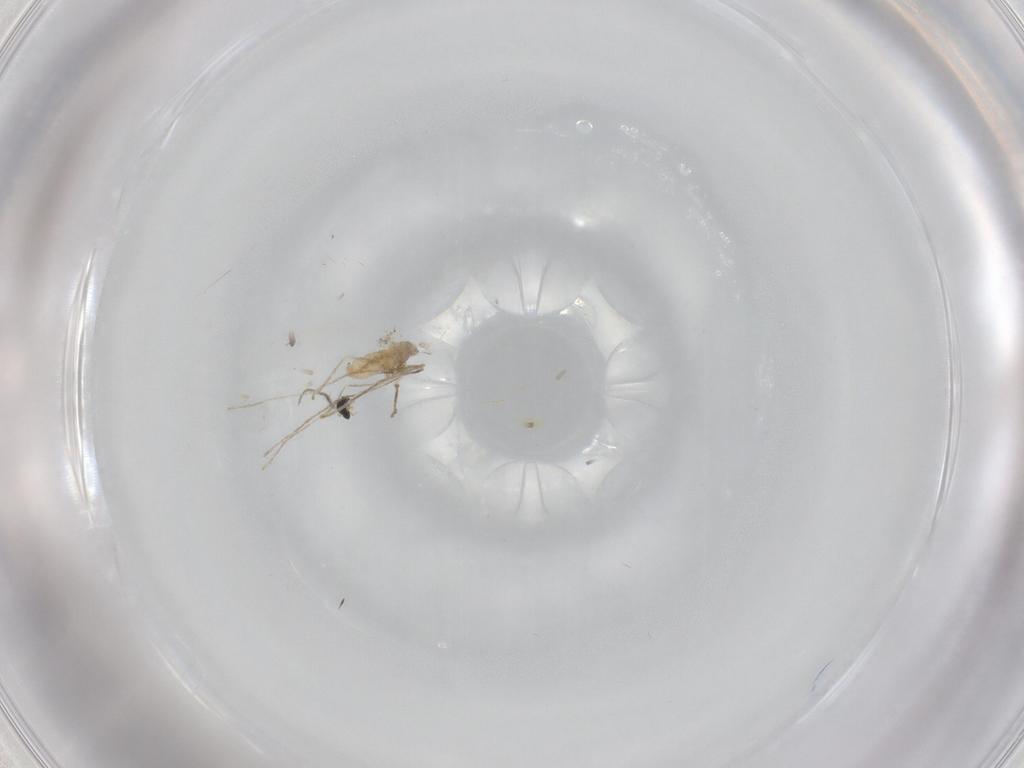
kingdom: Animalia
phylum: Arthropoda
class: Insecta
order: Diptera
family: Cecidomyiidae
